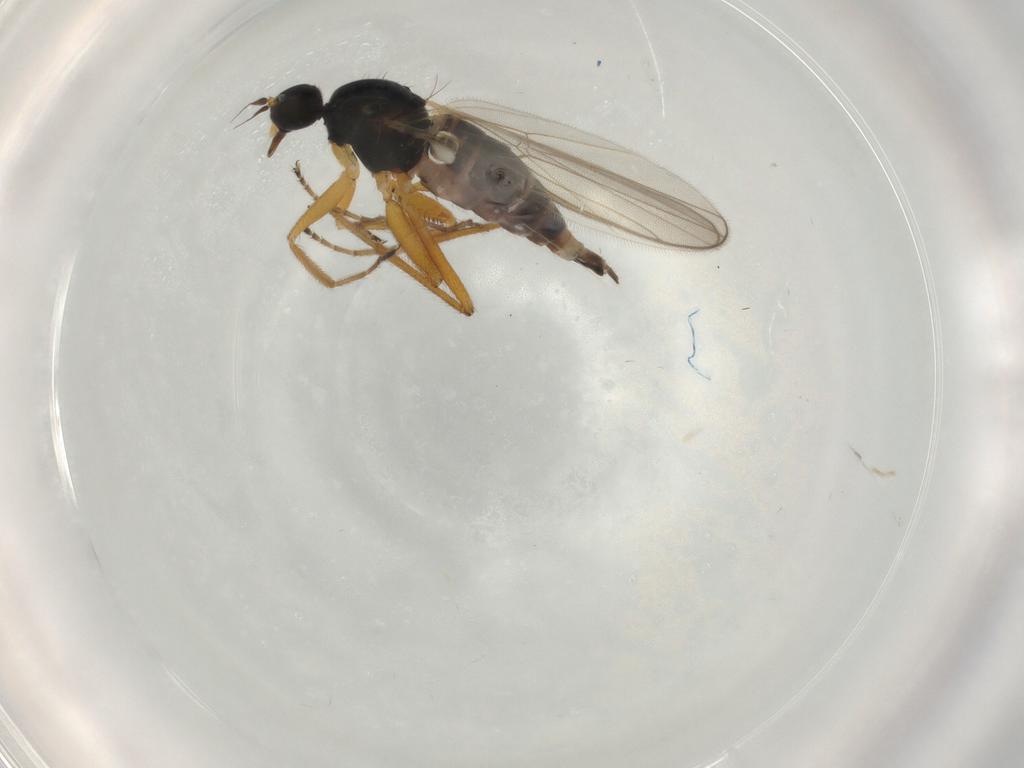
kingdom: Animalia
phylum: Arthropoda
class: Insecta
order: Diptera
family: Hybotidae
